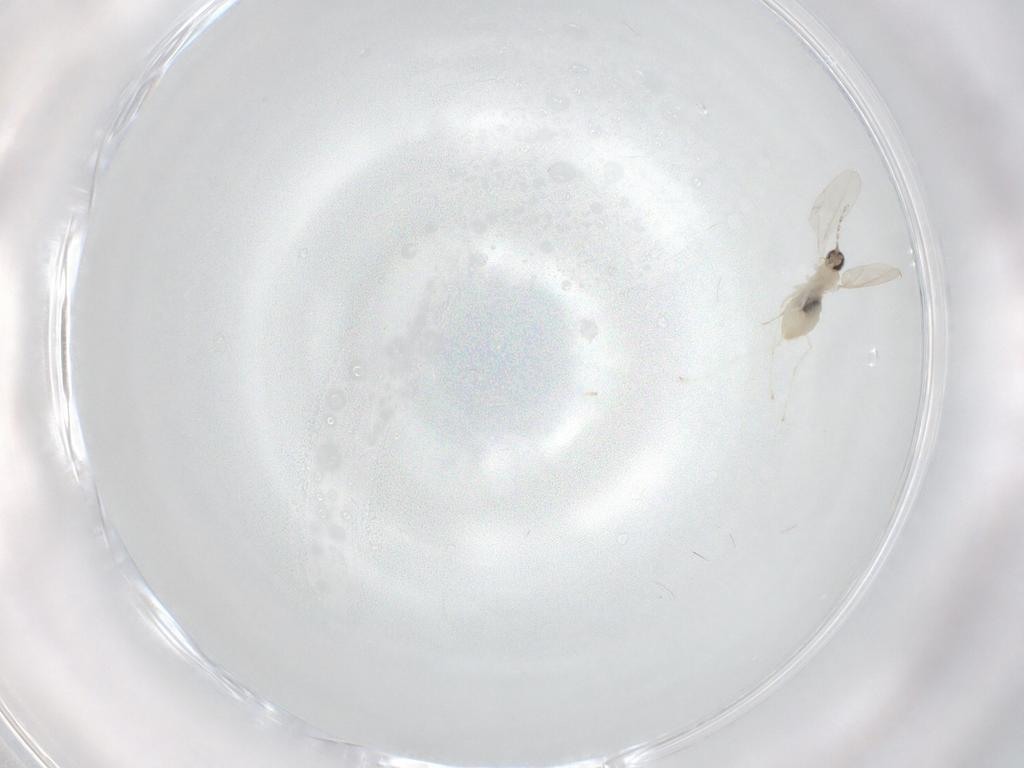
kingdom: Animalia
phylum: Arthropoda
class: Insecta
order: Diptera
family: Chironomidae
